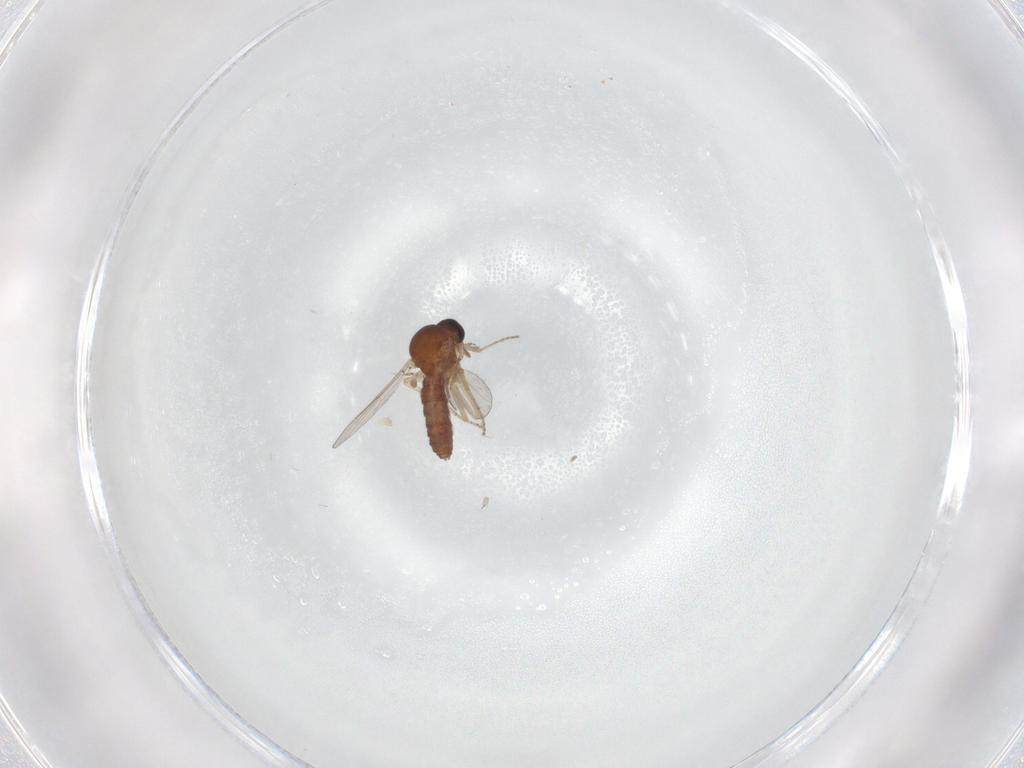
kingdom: Animalia
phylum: Arthropoda
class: Insecta
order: Diptera
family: Ceratopogonidae
